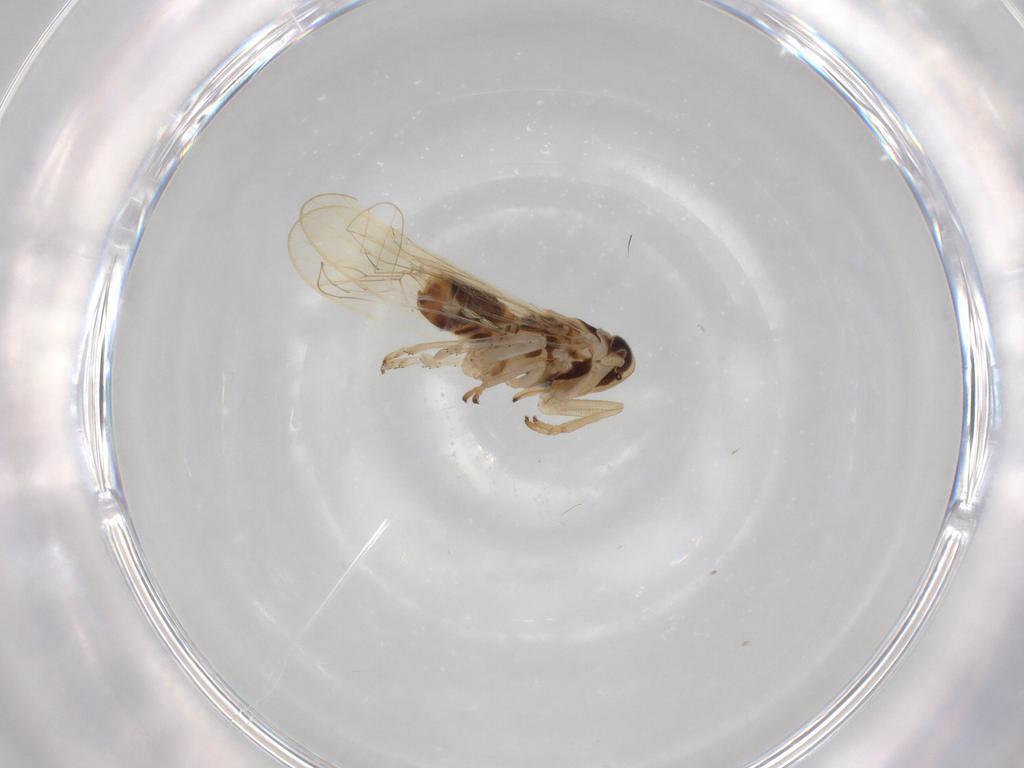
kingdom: Animalia
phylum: Arthropoda
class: Insecta
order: Hemiptera
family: Delphacidae
